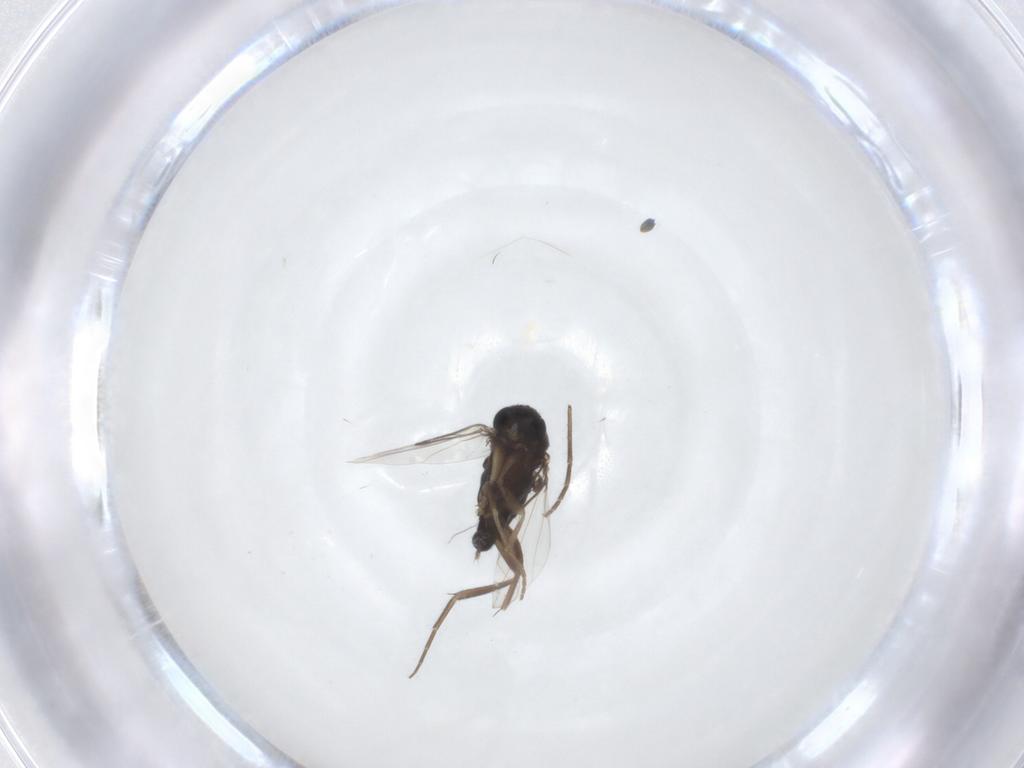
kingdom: Animalia
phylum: Arthropoda
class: Insecta
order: Diptera
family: Phoridae
